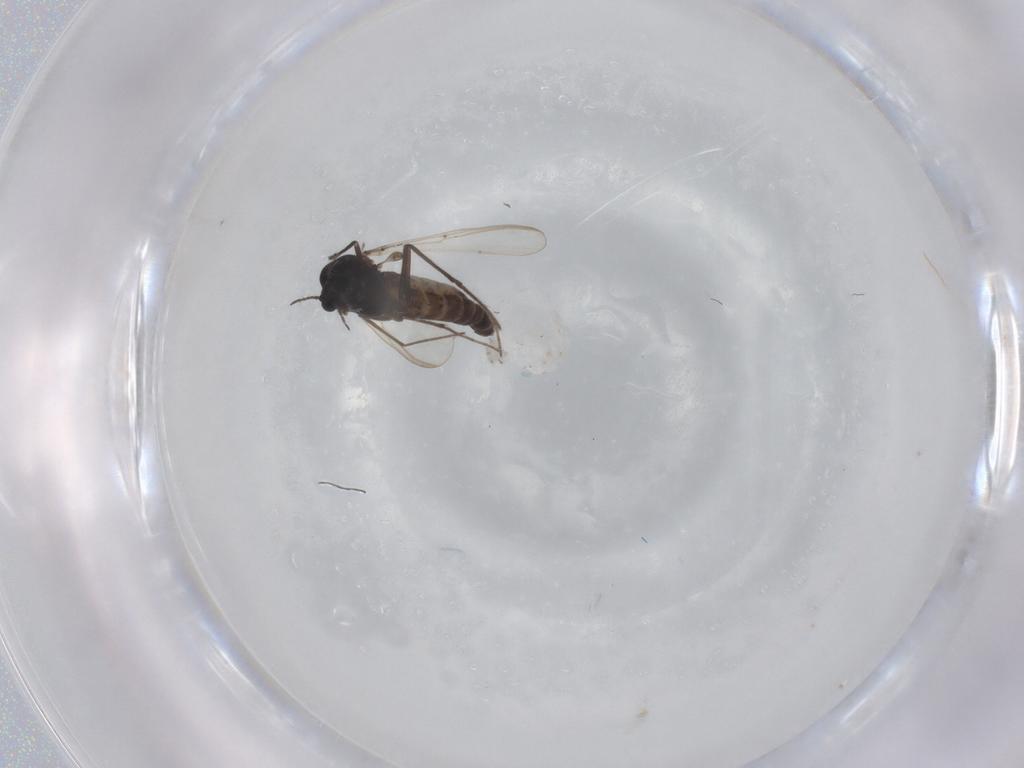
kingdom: Animalia
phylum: Arthropoda
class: Insecta
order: Diptera
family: Chironomidae
